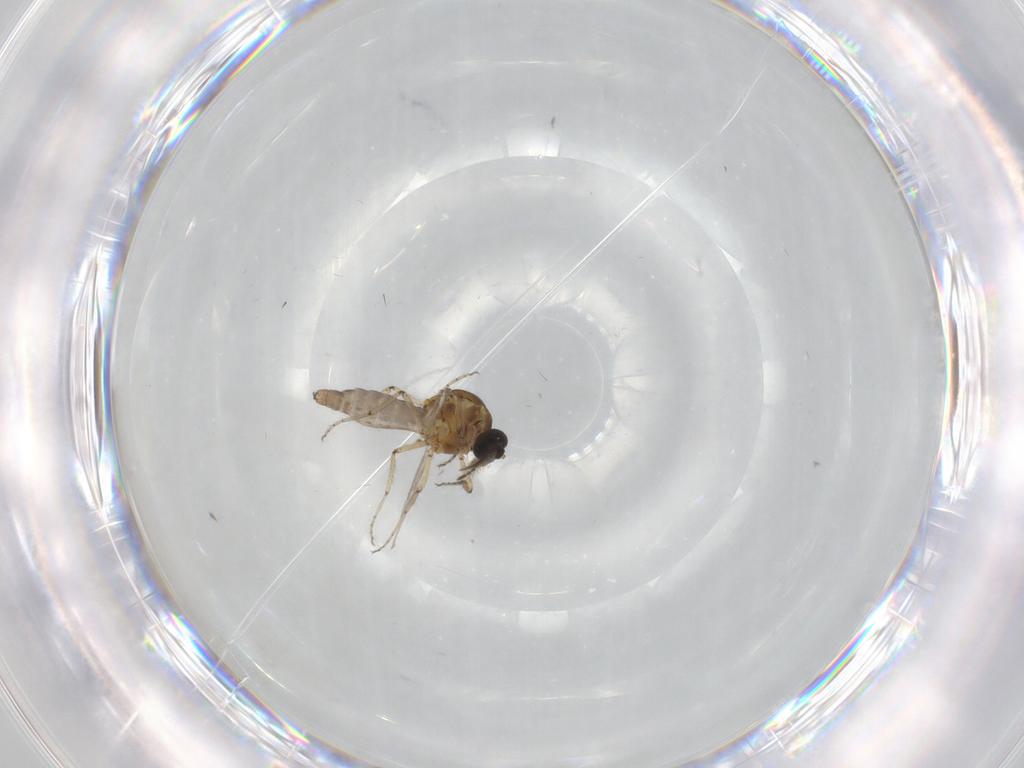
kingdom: Animalia
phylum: Arthropoda
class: Insecta
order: Diptera
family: Ceratopogonidae
